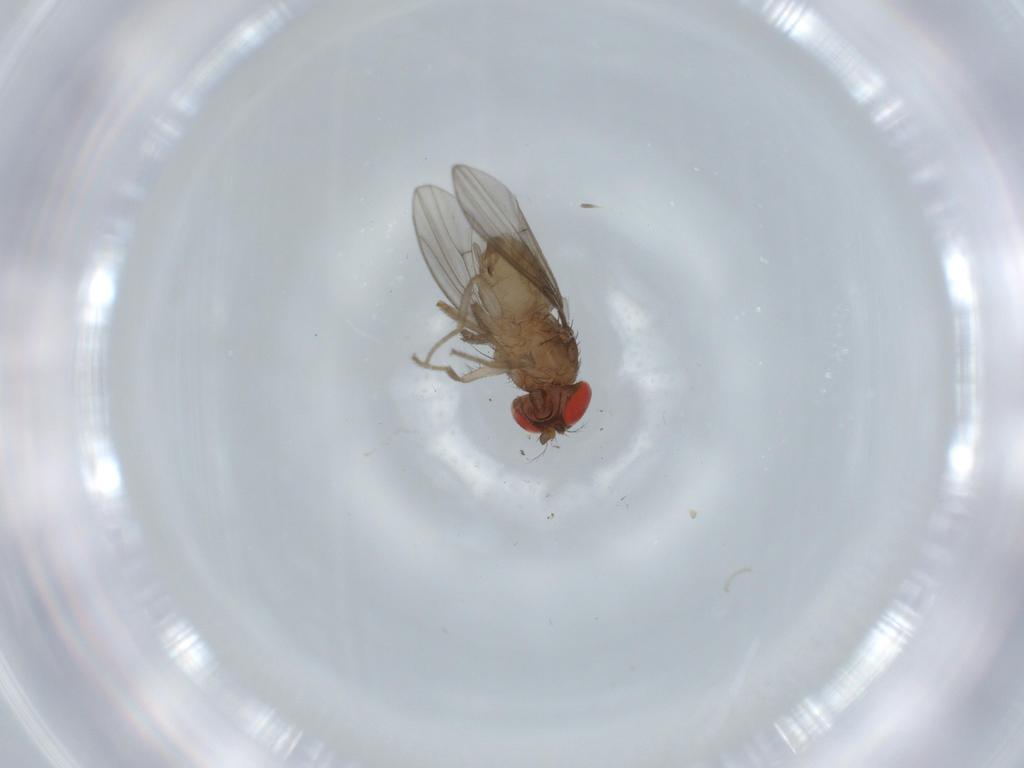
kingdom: Animalia
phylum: Arthropoda
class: Insecta
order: Diptera
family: Drosophilidae
